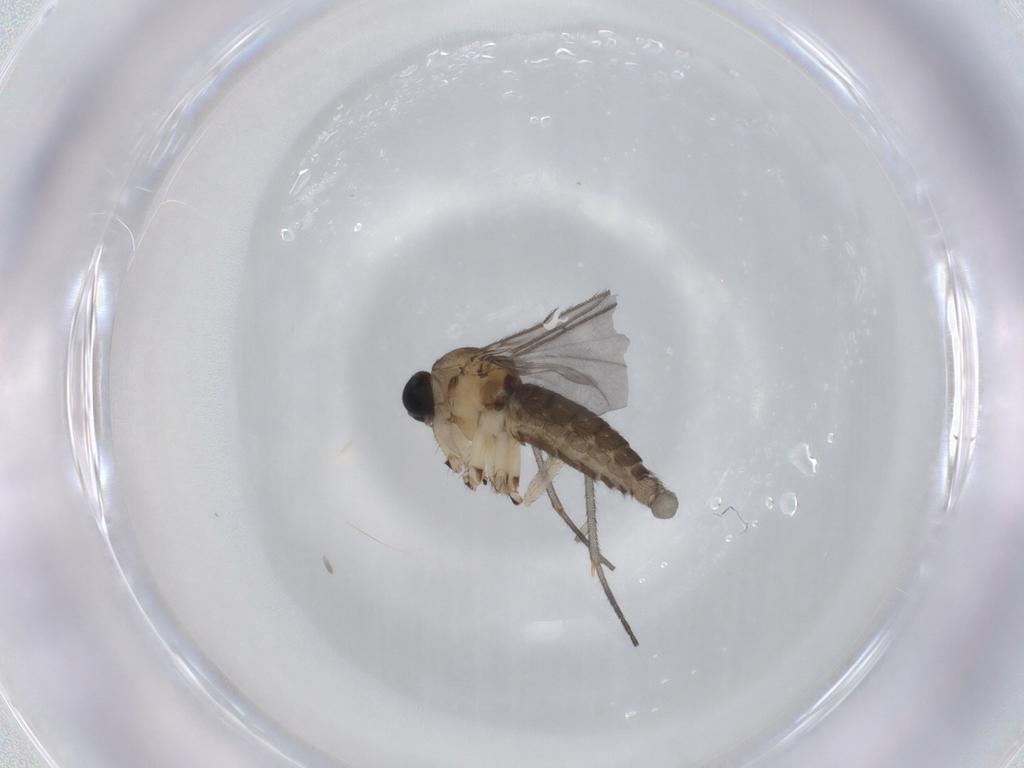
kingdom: Animalia
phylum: Arthropoda
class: Insecta
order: Diptera
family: Sciaridae
